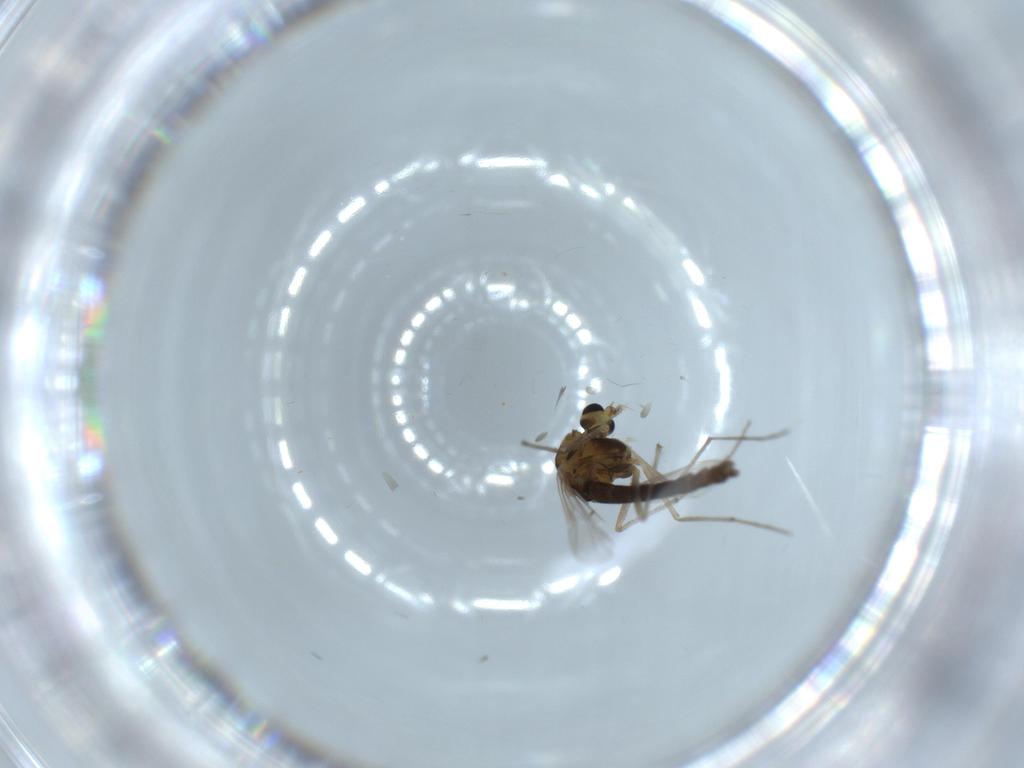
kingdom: Animalia
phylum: Arthropoda
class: Insecta
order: Diptera
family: Chironomidae
